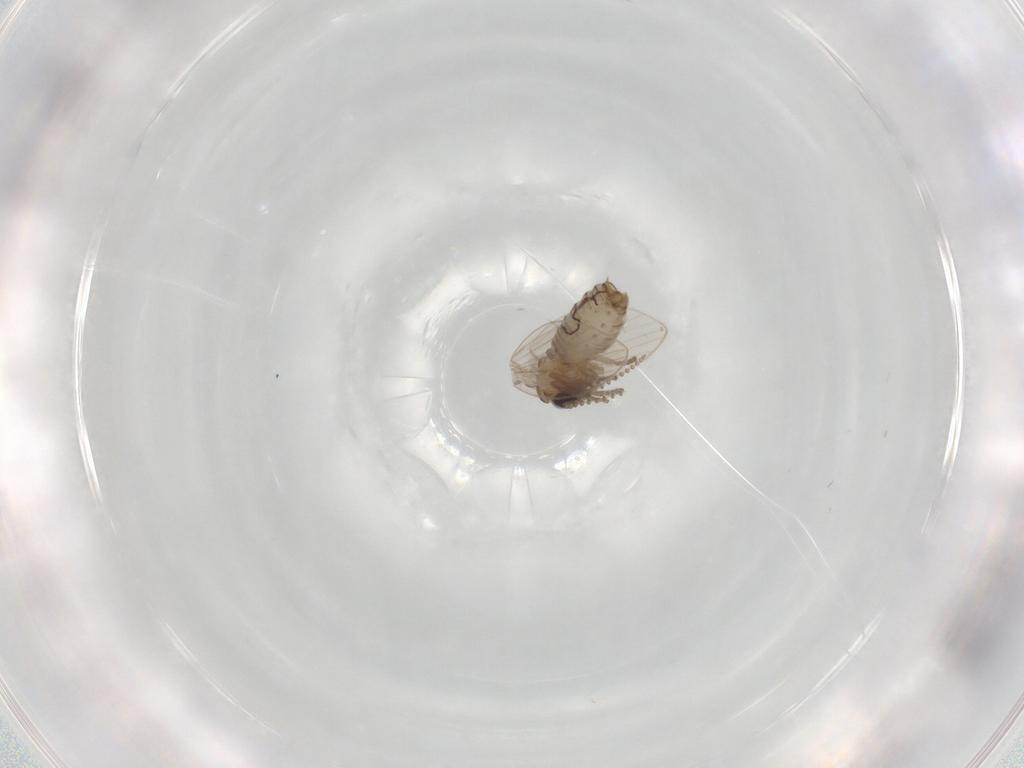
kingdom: Animalia
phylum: Arthropoda
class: Insecta
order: Diptera
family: Psychodidae
